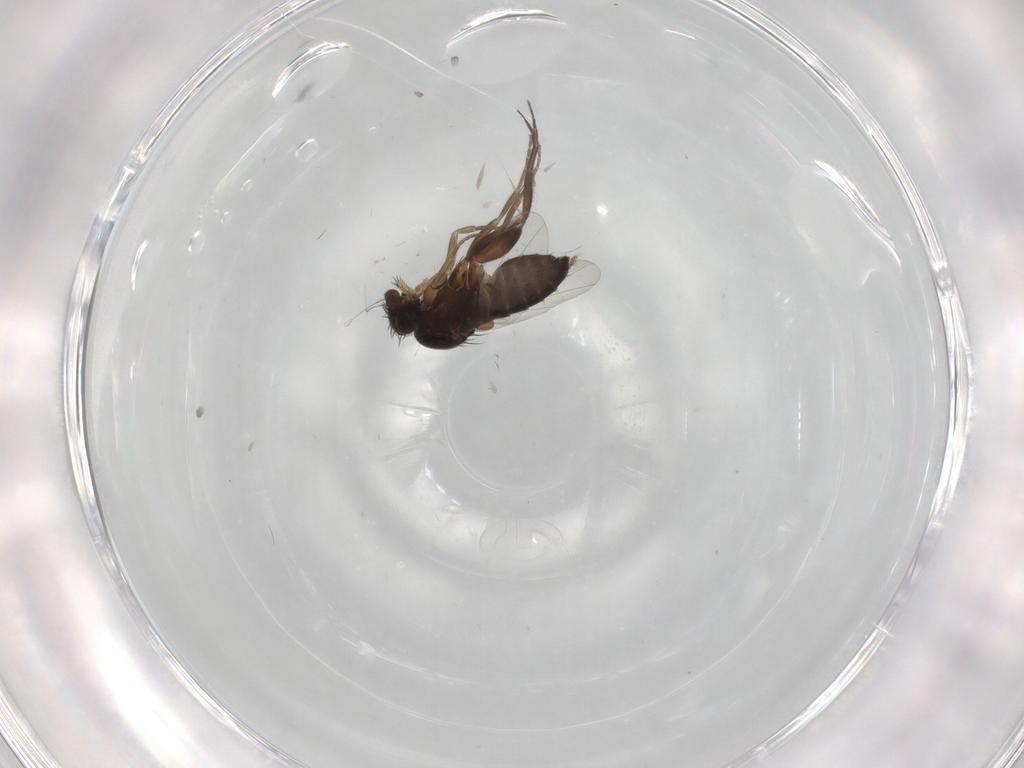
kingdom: Animalia
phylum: Arthropoda
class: Insecta
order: Diptera
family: Phoridae
